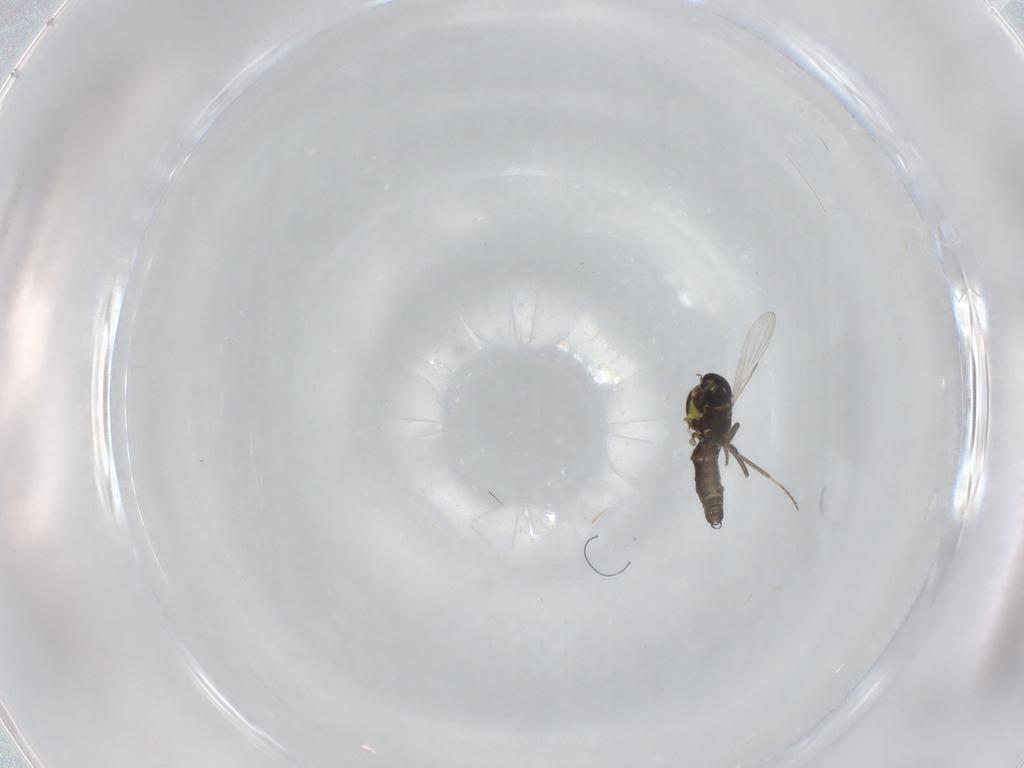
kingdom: Animalia
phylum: Arthropoda
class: Insecta
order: Diptera
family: Ceratopogonidae
